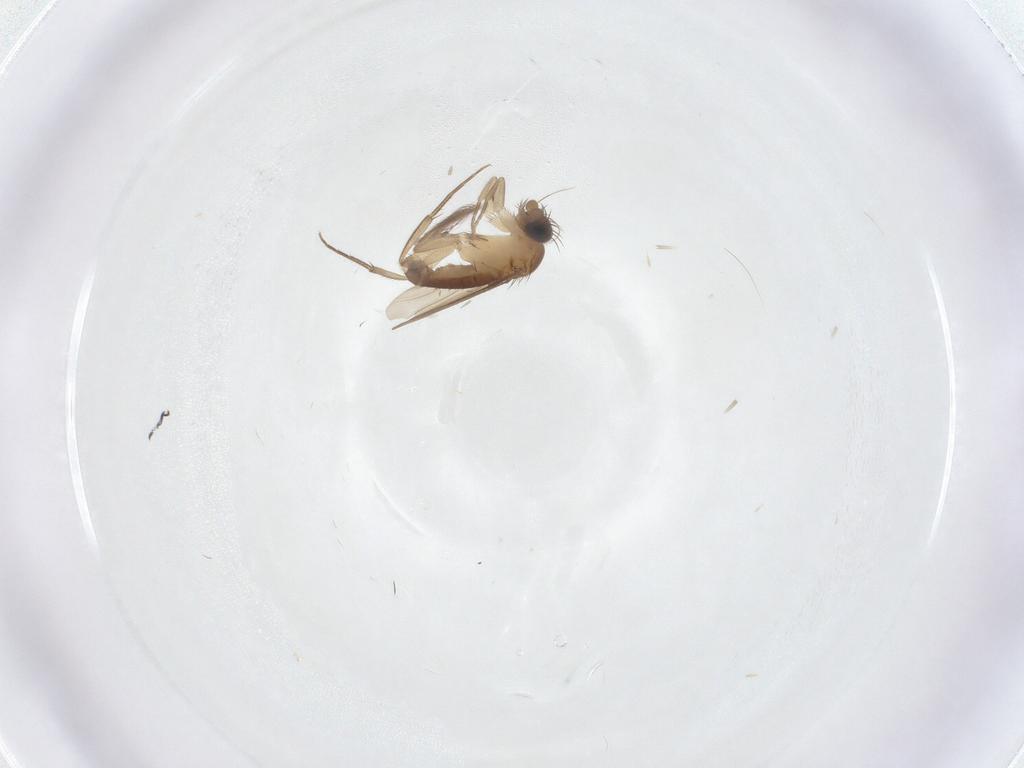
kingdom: Animalia
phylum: Arthropoda
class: Insecta
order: Diptera
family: Phoridae
